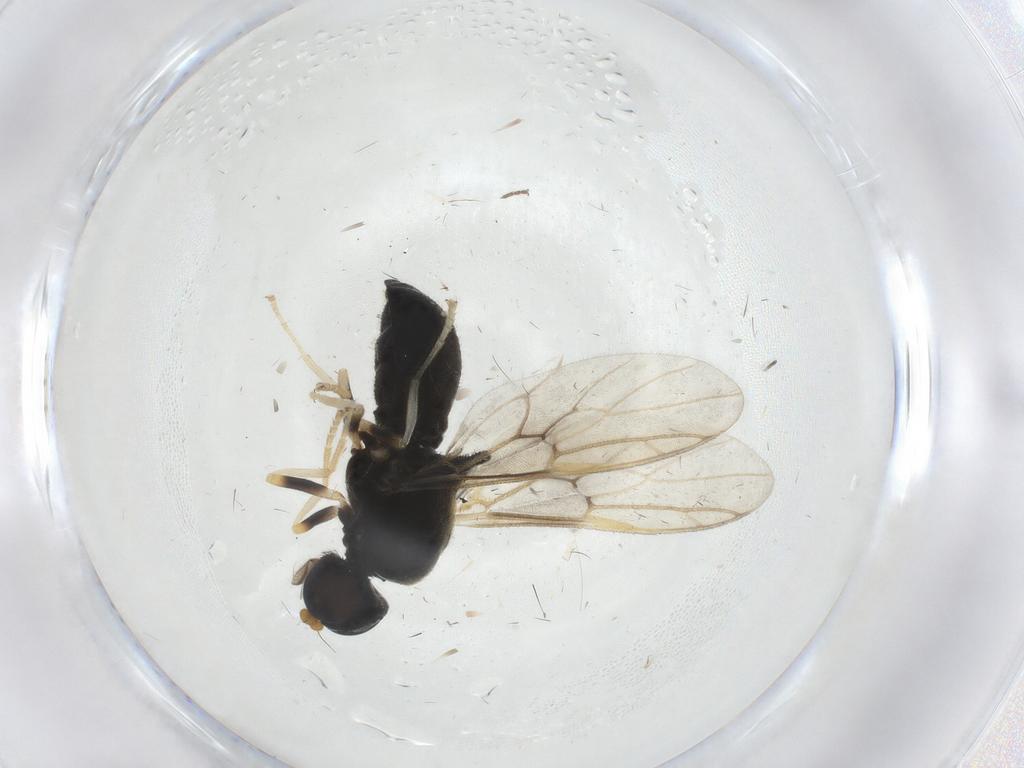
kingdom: Animalia
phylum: Arthropoda
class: Insecta
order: Diptera
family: Stratiomyidae
